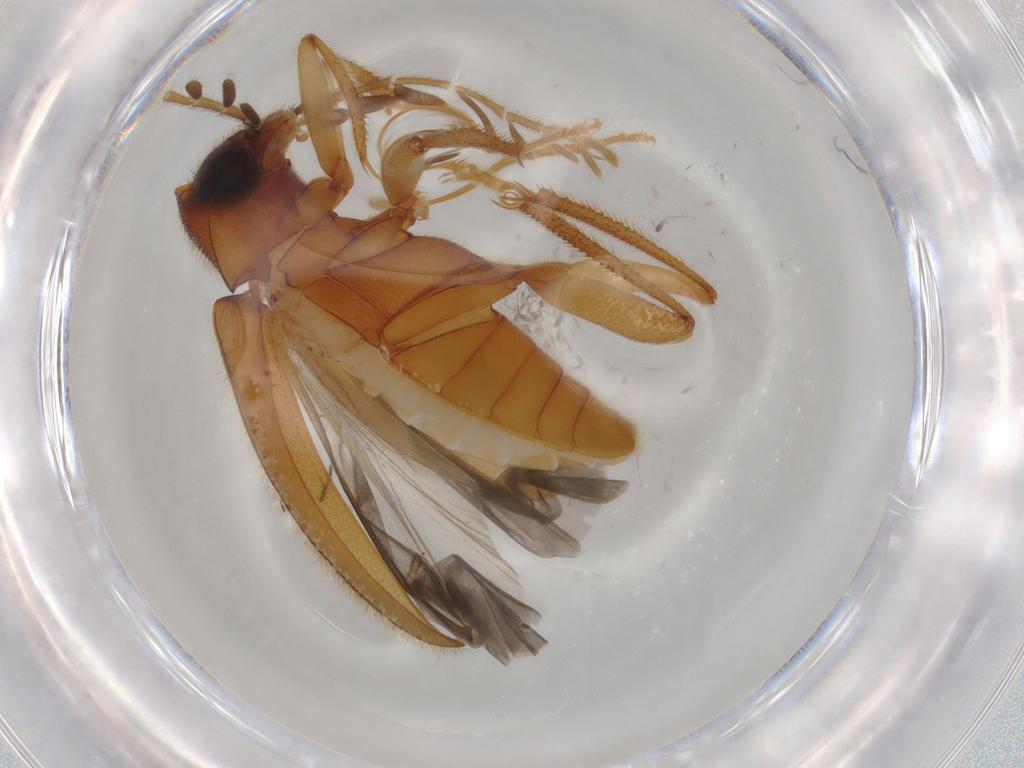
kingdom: Animalia
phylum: Arthropoda
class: Insecta
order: Coleoptera
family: Ptilodactylidae
